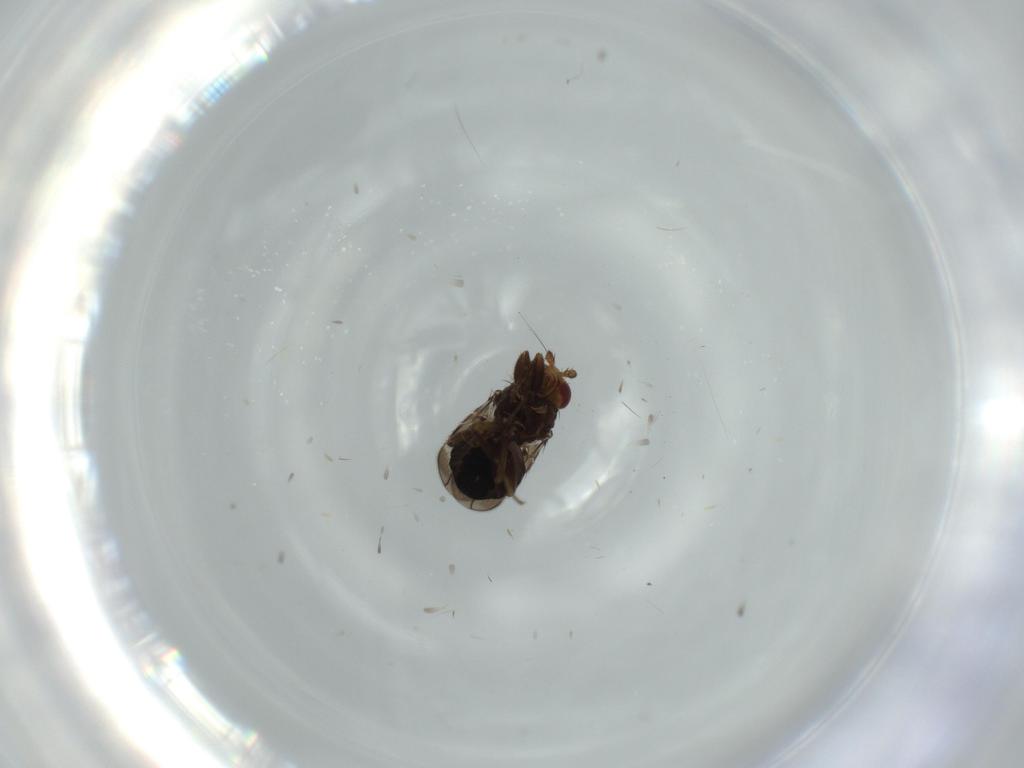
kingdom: Animalia
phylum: Arthropoda
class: Insecta
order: Diptera
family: Sphaeroceridae
